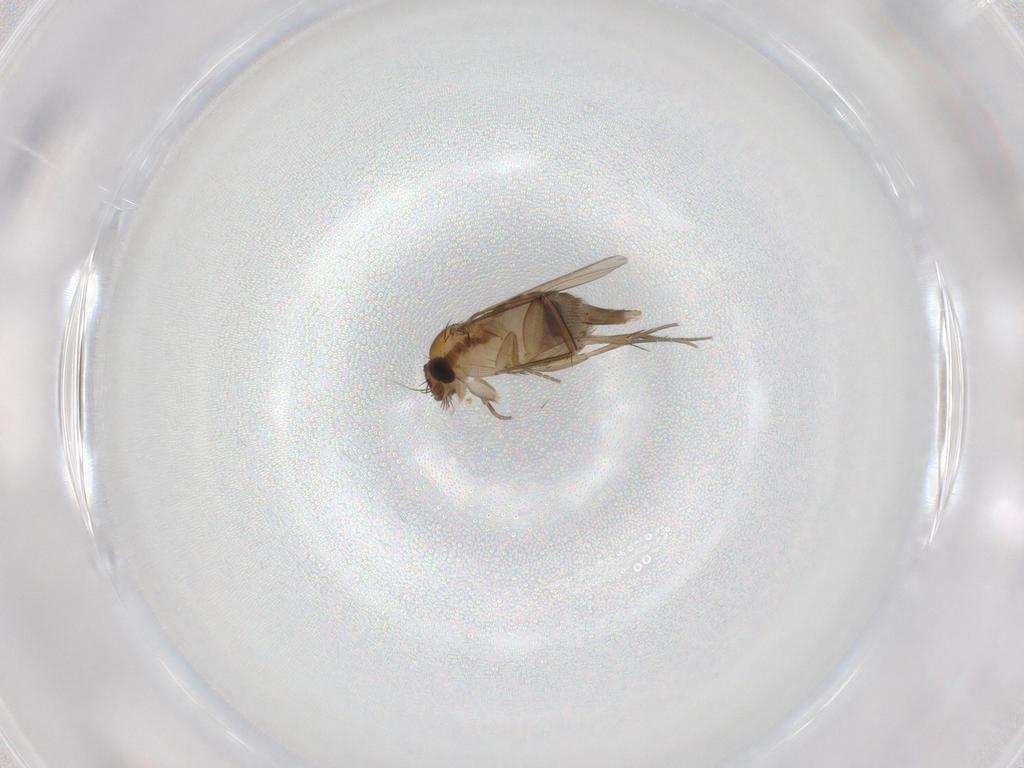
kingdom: Animalia
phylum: Arthropoda
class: Insecta
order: Diptera
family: Phoridae
